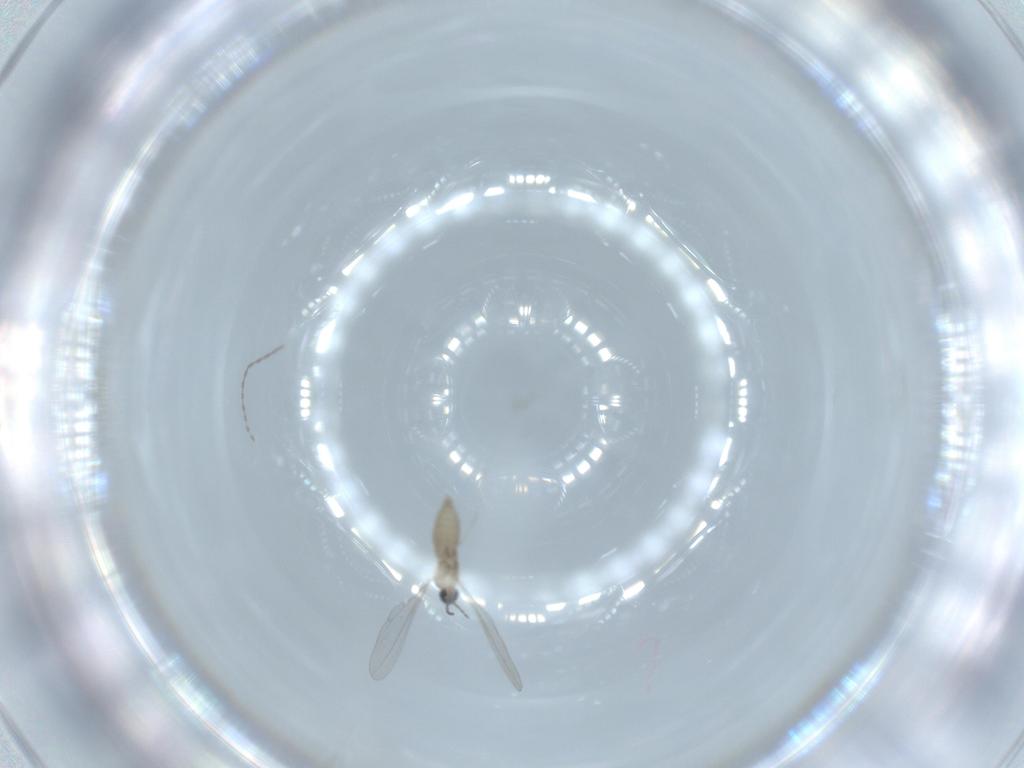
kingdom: Animalia
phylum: Arthropoda
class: Insecta
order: Diptera
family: Cecidomyiidae
